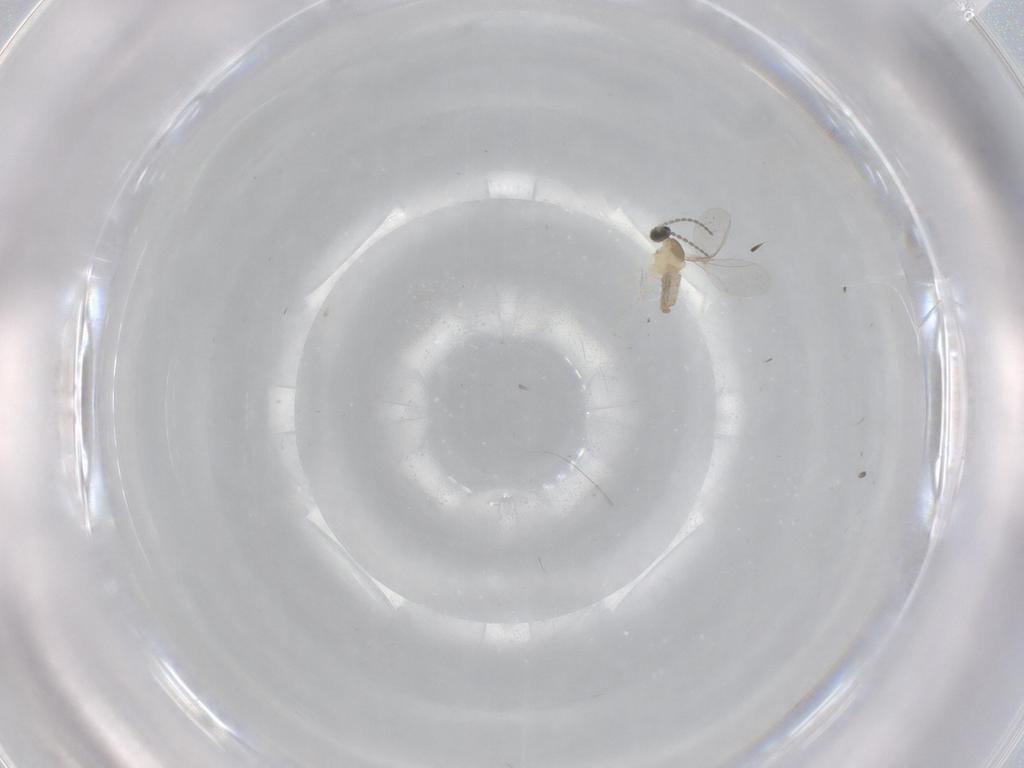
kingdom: Animalia
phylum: Arthropoda
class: Insecta
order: Diptera
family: Cecidomyiidae
